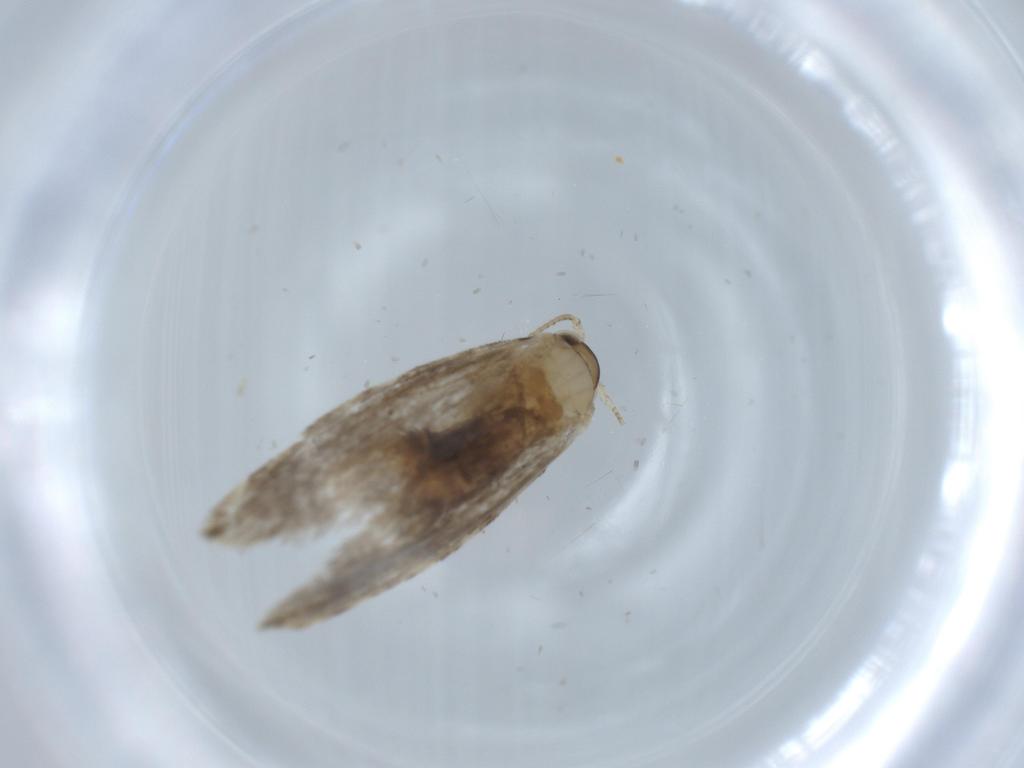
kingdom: Animalia
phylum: Arthropoda
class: Insecta
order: Lepidoptera
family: Tineidae
